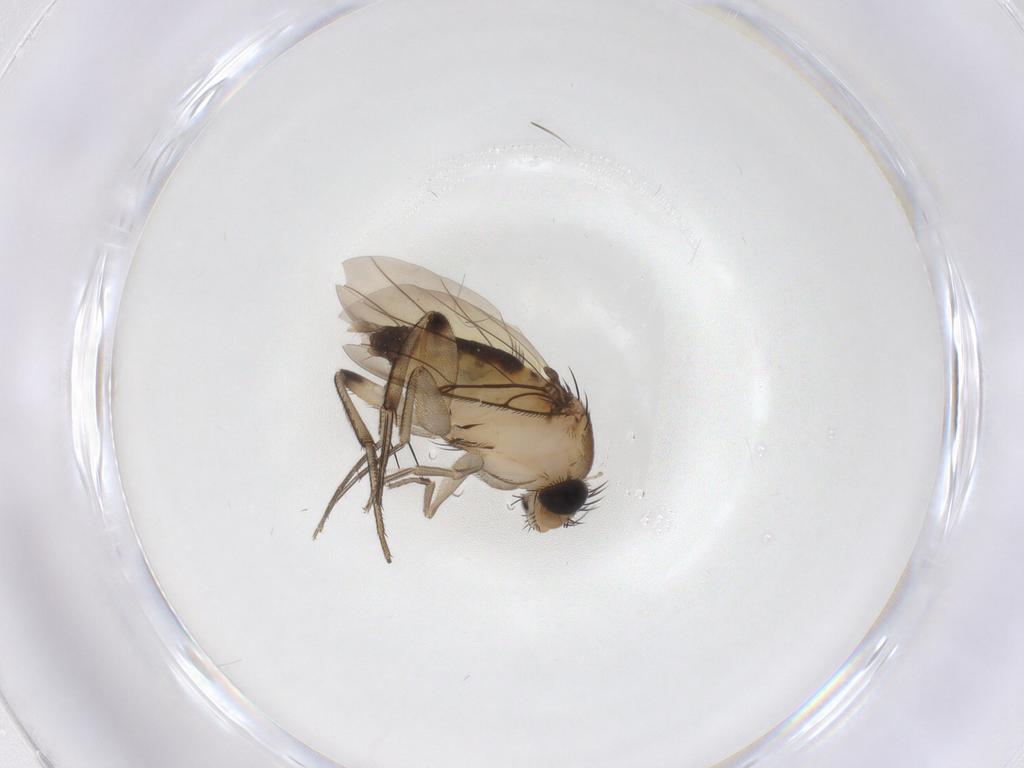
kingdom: Animalia
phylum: Arthropoda
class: Insecta
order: Diptera
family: Phoridae
